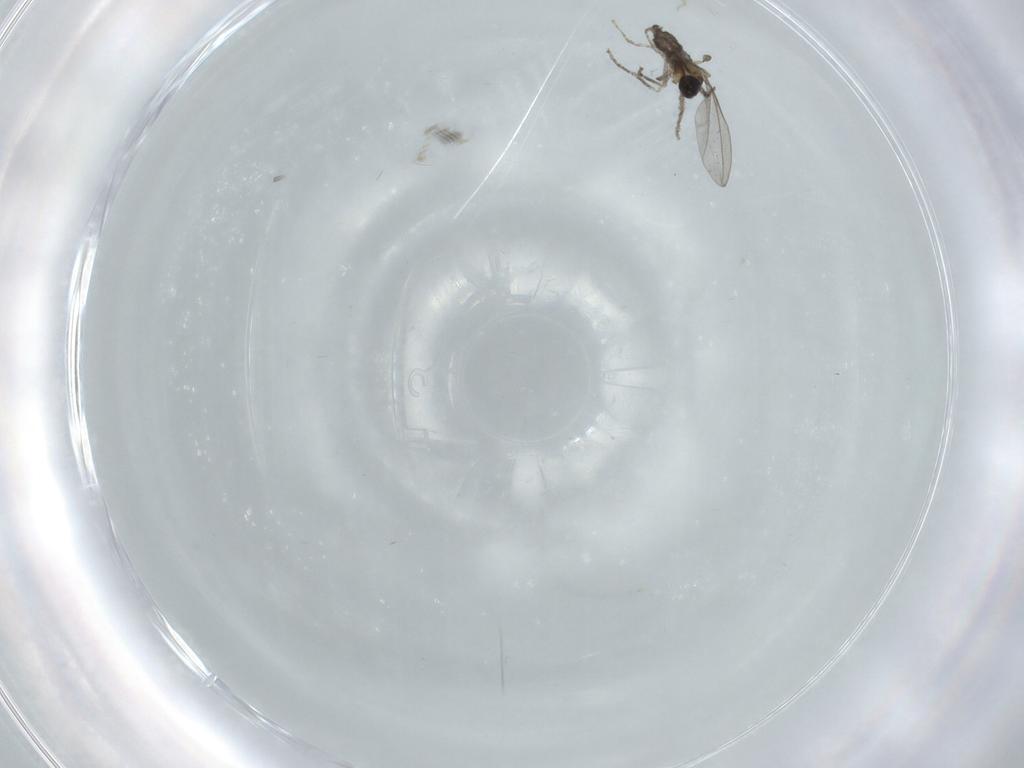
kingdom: Animalia
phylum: Arthropoda
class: Insecta
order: Diptera
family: Cecidomyiidae
